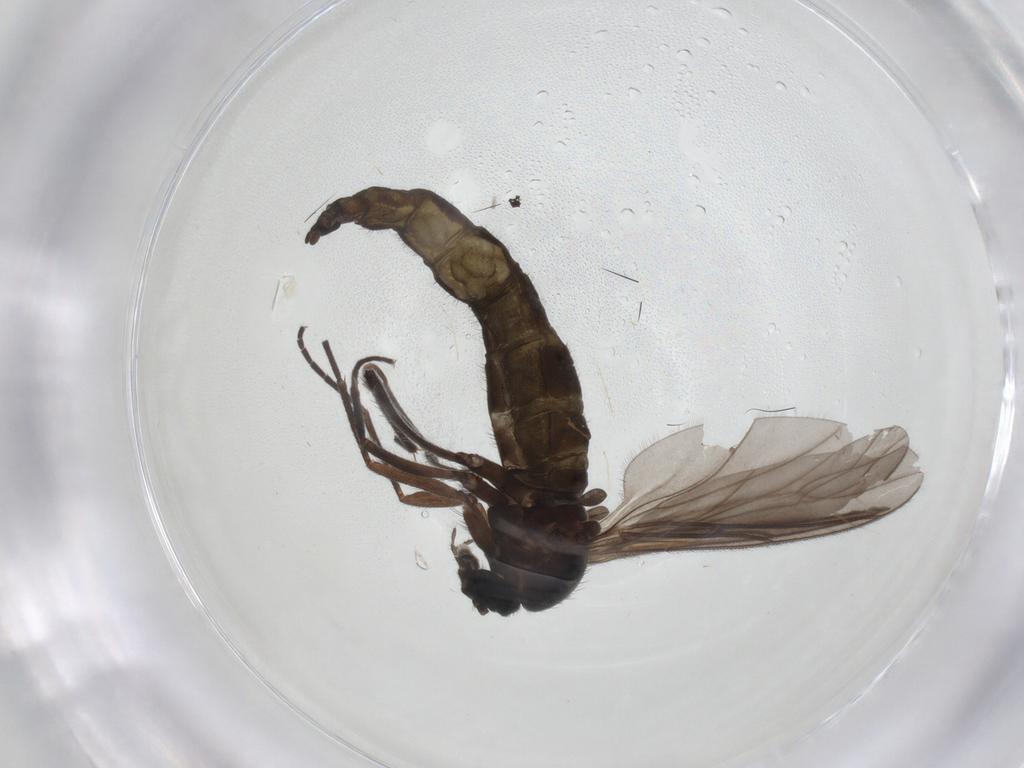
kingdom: Animalia
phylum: Arthropoda
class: Insecta
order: Diptera
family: Sciaridae
